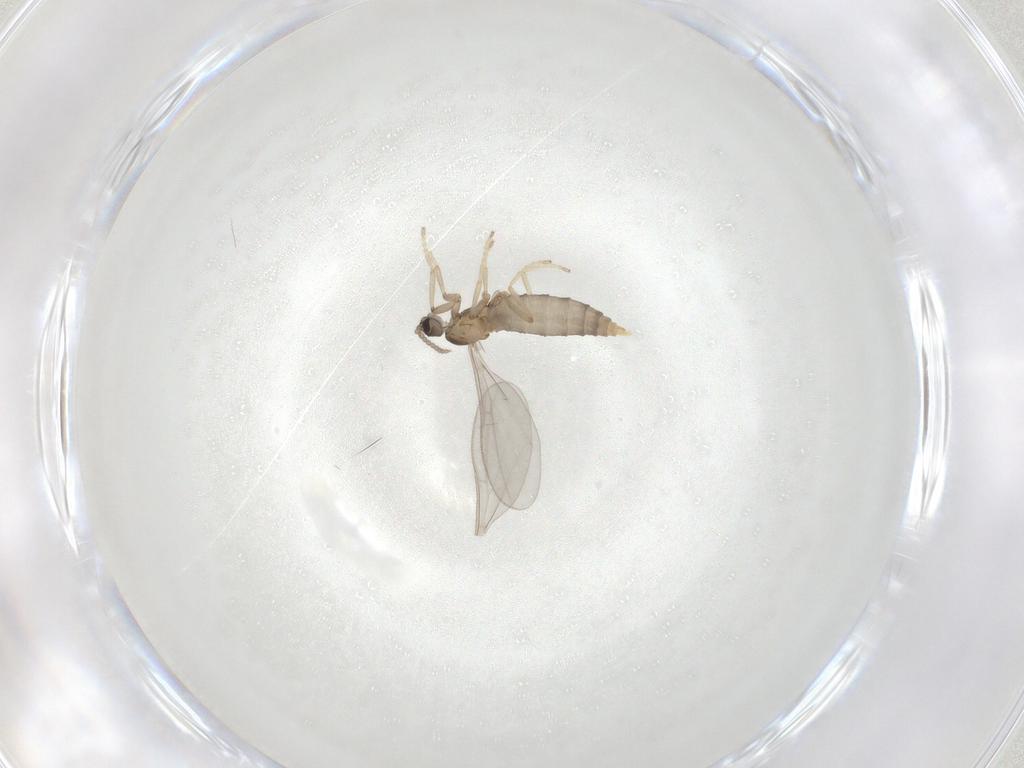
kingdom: Animalia
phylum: Arthropoda
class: Insecta
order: Diptera
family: Cecidomyiidae
